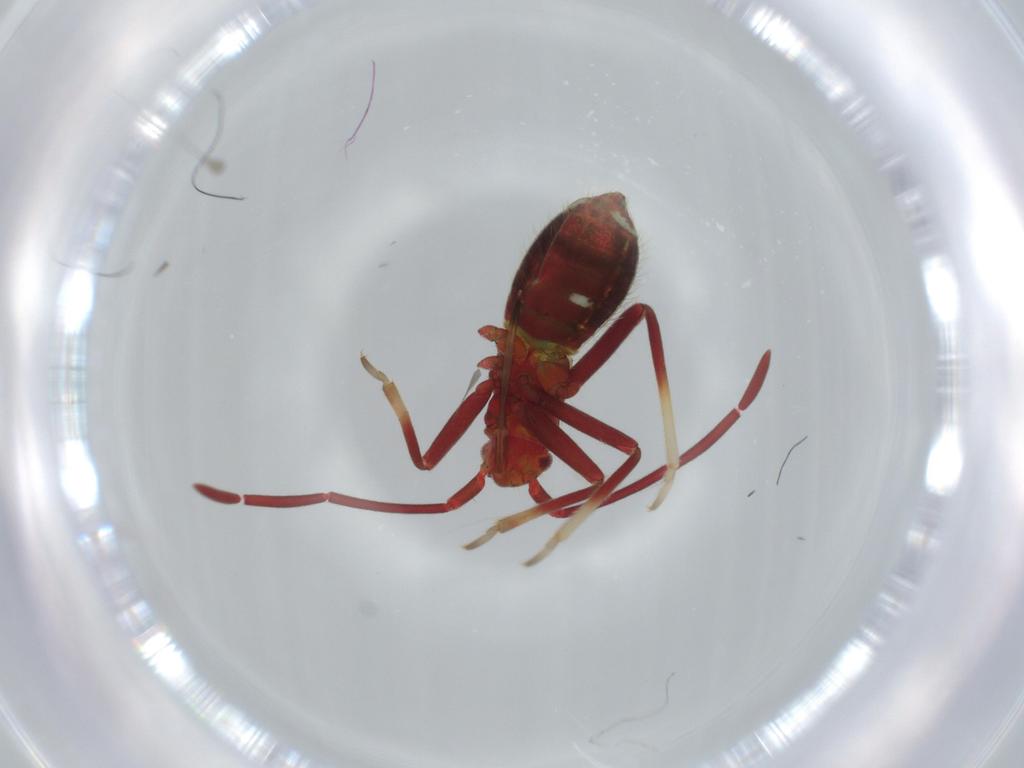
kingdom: Animalia
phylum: Arthropoda
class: Insecta
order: Hemiptera
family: Miridae
